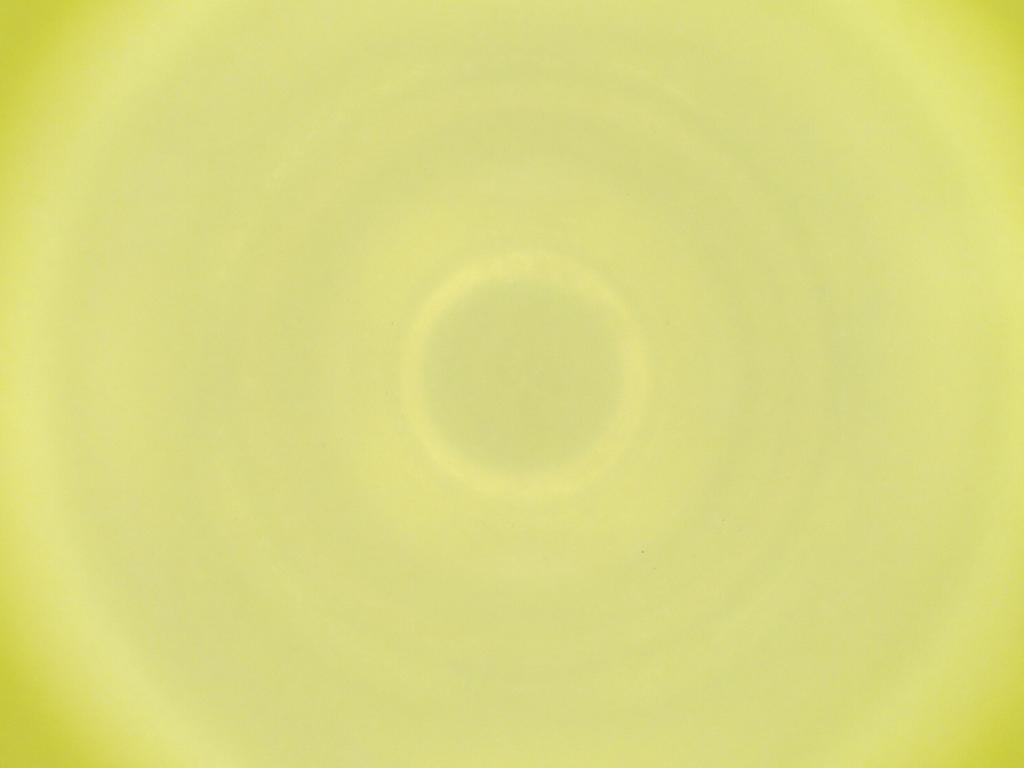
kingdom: Animalia
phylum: Arthropoda
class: Insecta
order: Diptera
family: Cecidomyiidae
